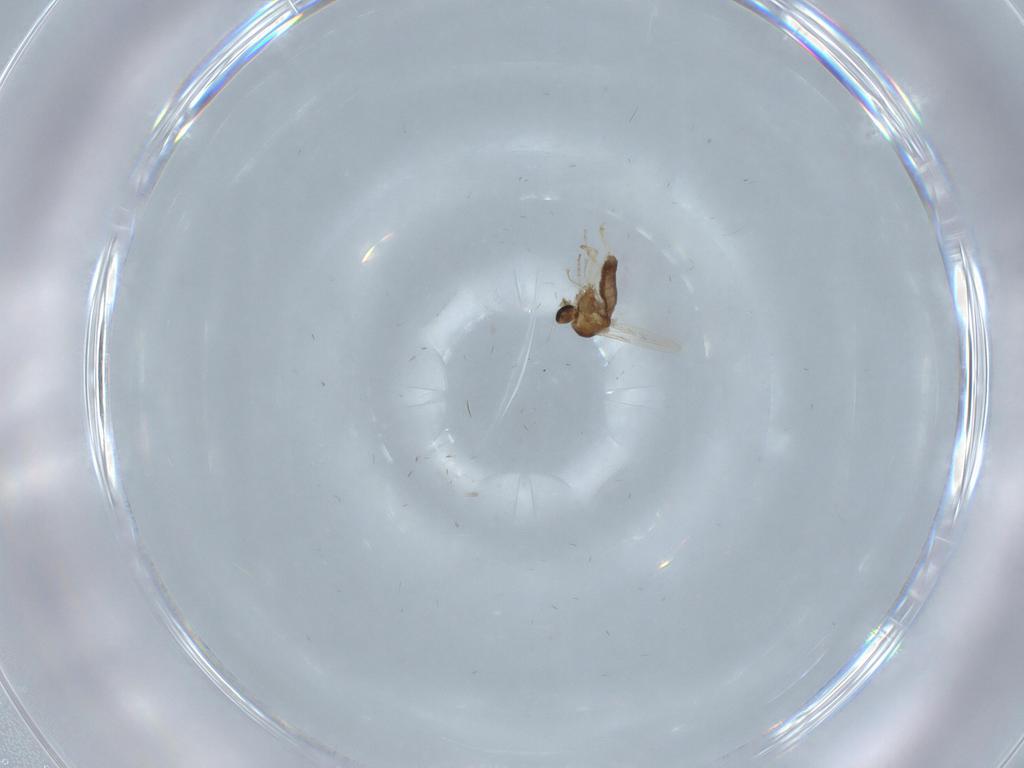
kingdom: Animalia
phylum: Arthropoda
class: Insecta
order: Diptera
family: Ceratopogonidae
